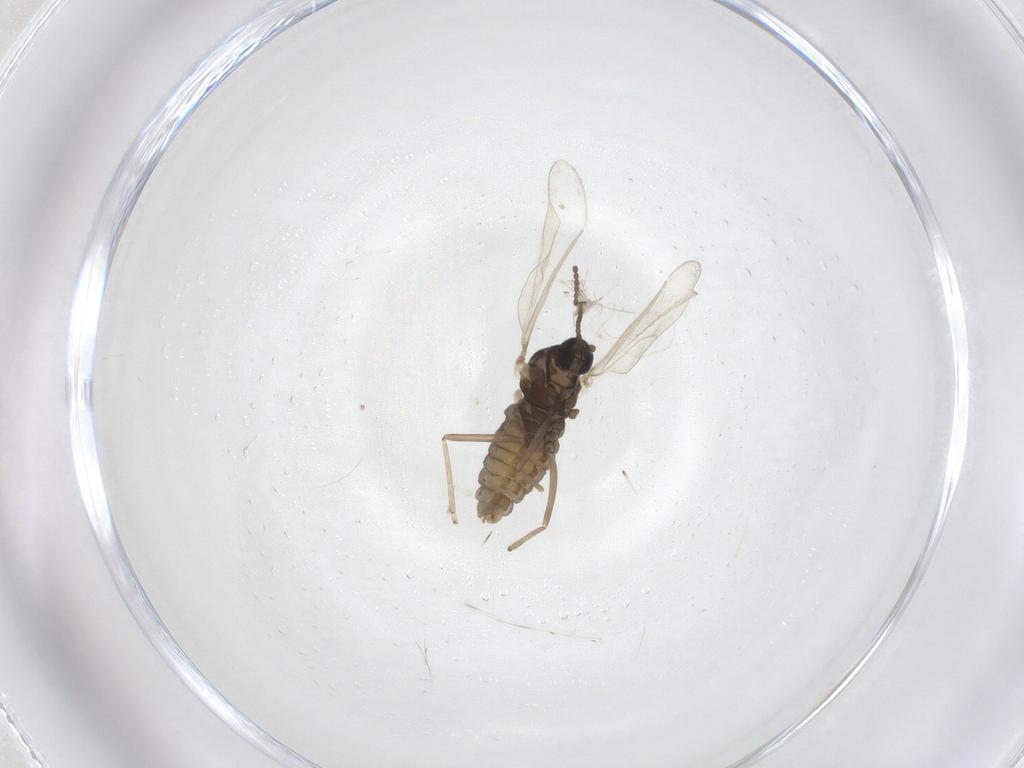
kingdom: Animalia
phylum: Arthropoda
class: Insecta
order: Diptera
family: Cecidomyiidae
